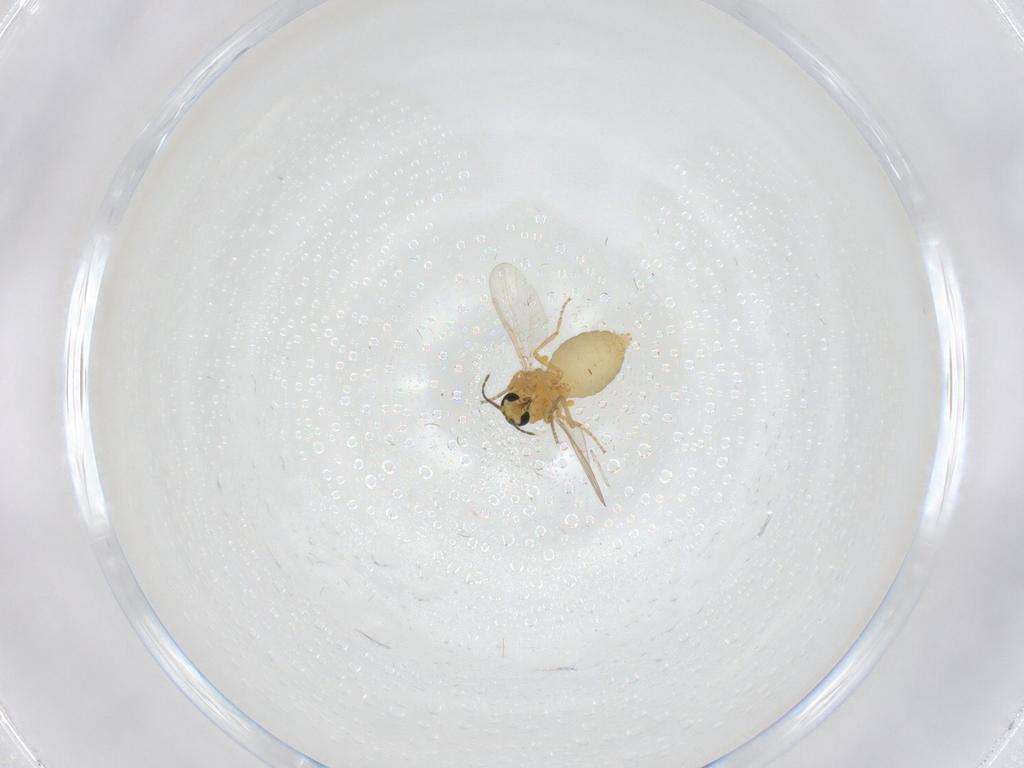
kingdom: Animalia
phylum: Arthropoda
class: Insecta
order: Diptera
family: Ceratopogonidae
